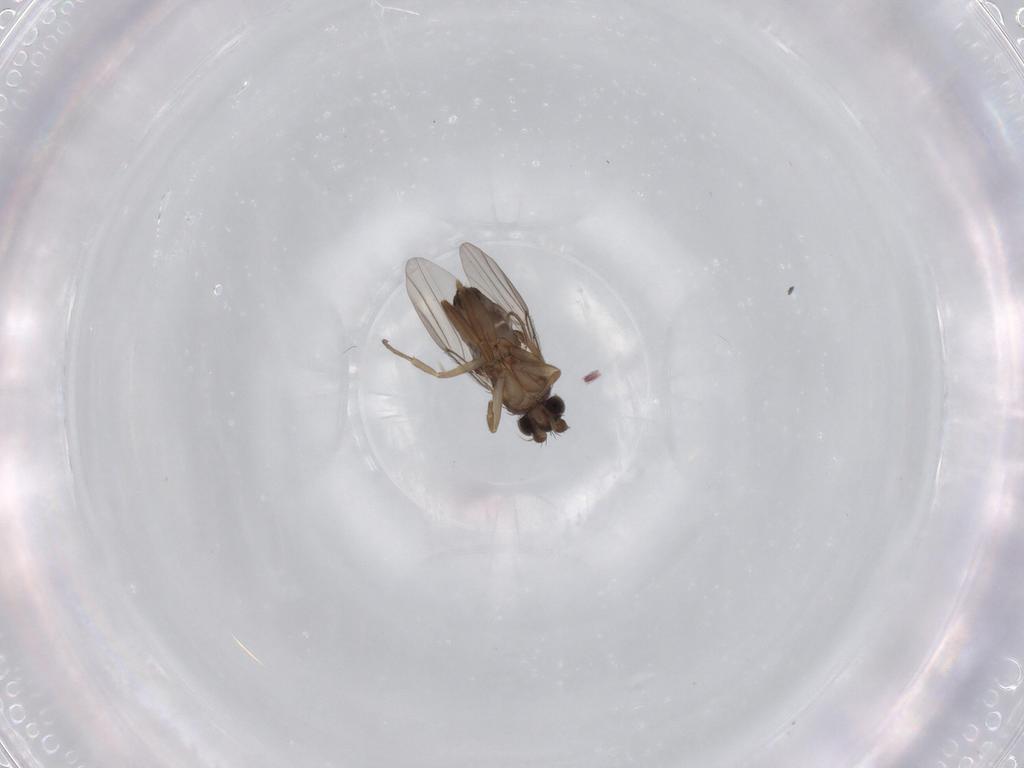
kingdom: Animalia
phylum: Arthropoda
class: Insecta
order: Diptera
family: Phoridae
